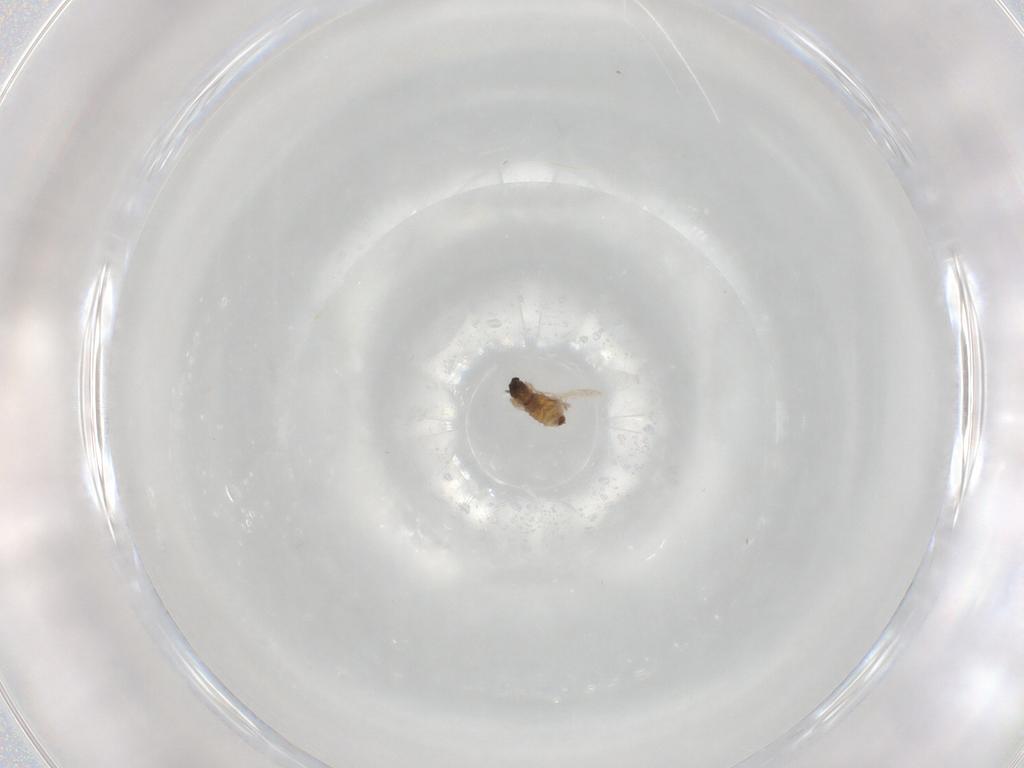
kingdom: Animalia
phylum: Arthropoda
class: Insecta
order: Diptera
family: Cecidomyiidae
